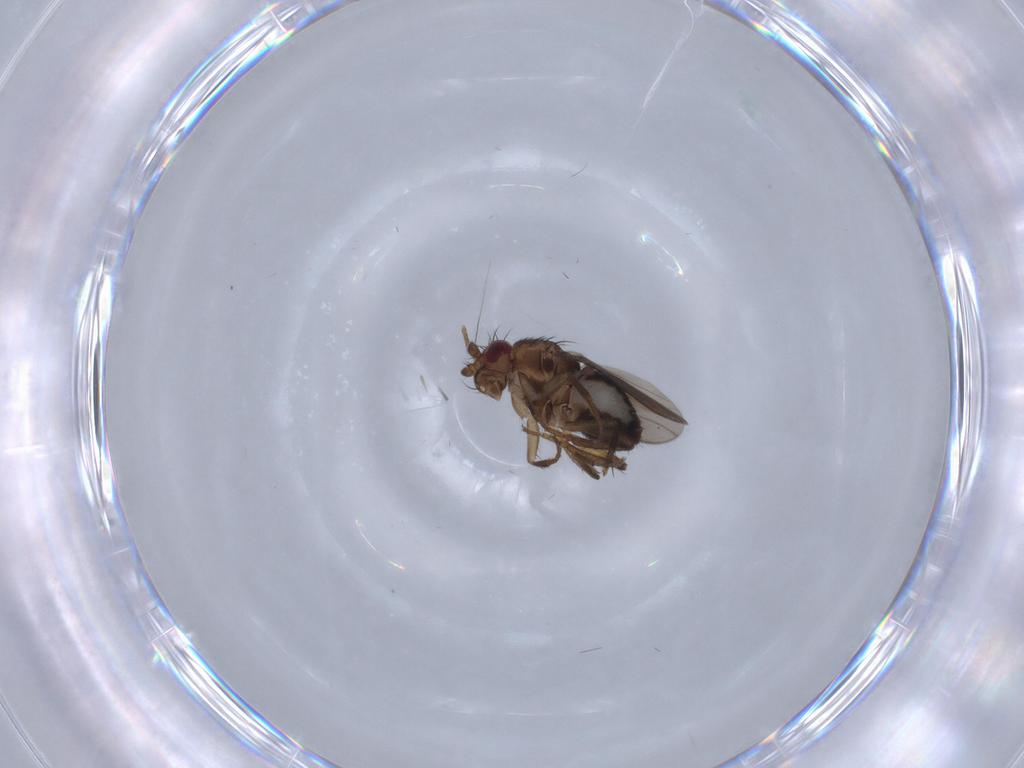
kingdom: Animalia
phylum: Arthropoda
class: Insecta
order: Diptera
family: Sphaeroceridae
